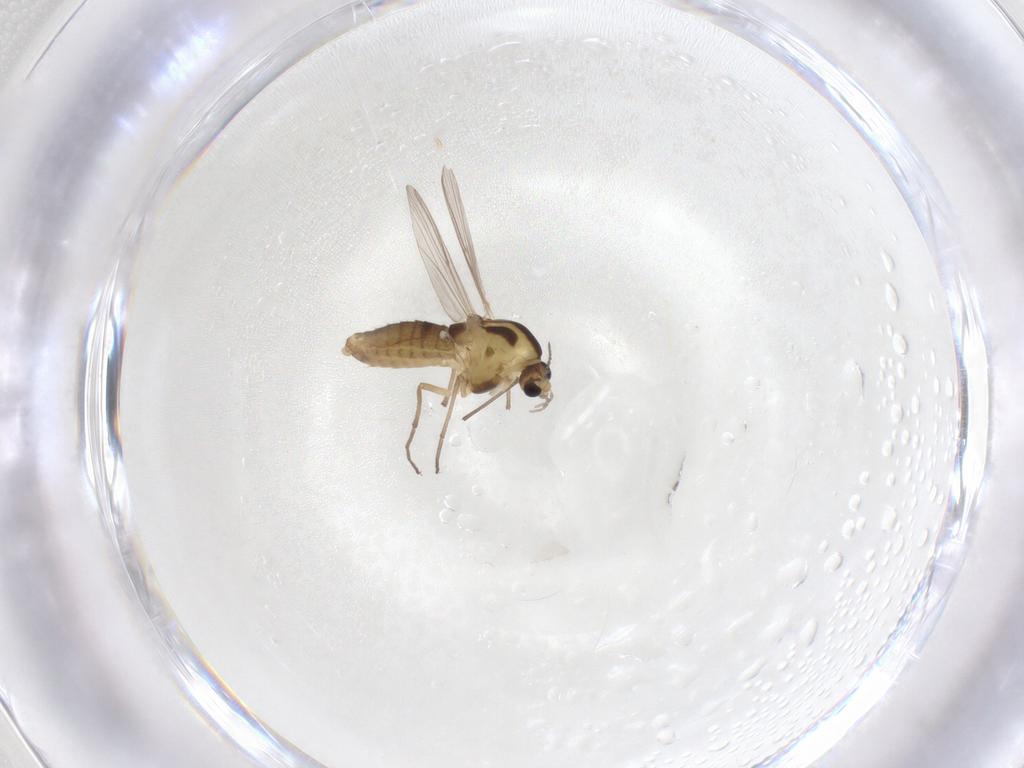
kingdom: Animalia
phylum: Arthropoda
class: Insecta
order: Diptera
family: Chironomidae
